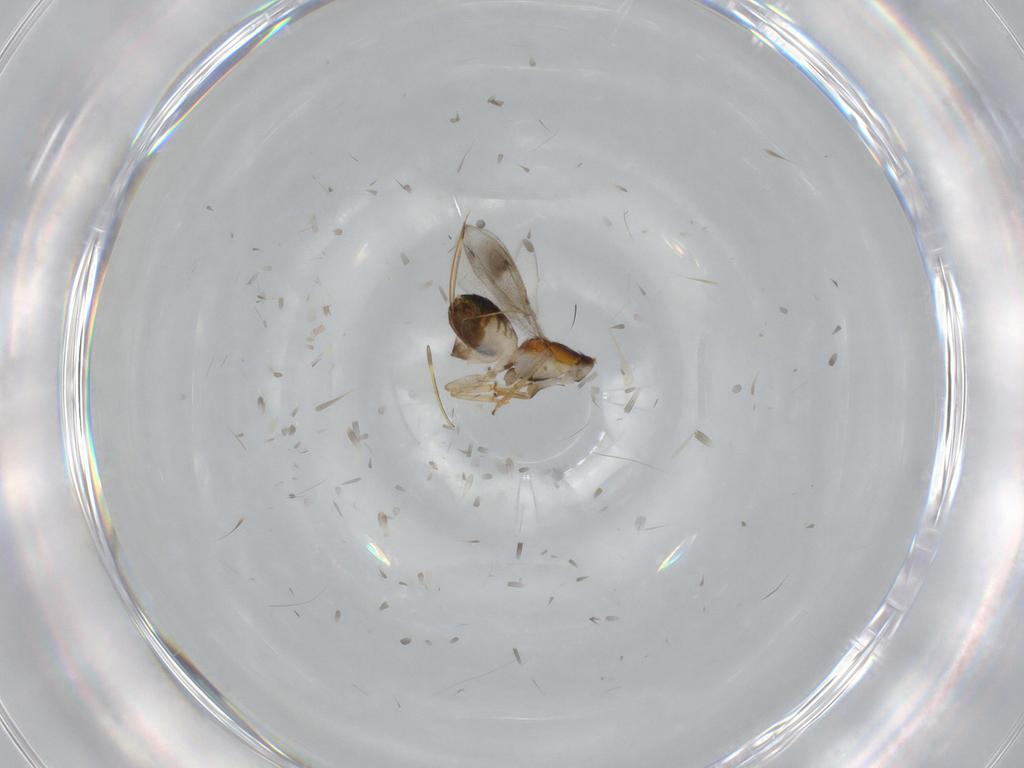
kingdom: Animalia
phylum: Arthropoda
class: Insecta
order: Hymenoptera
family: Pteromalidae
